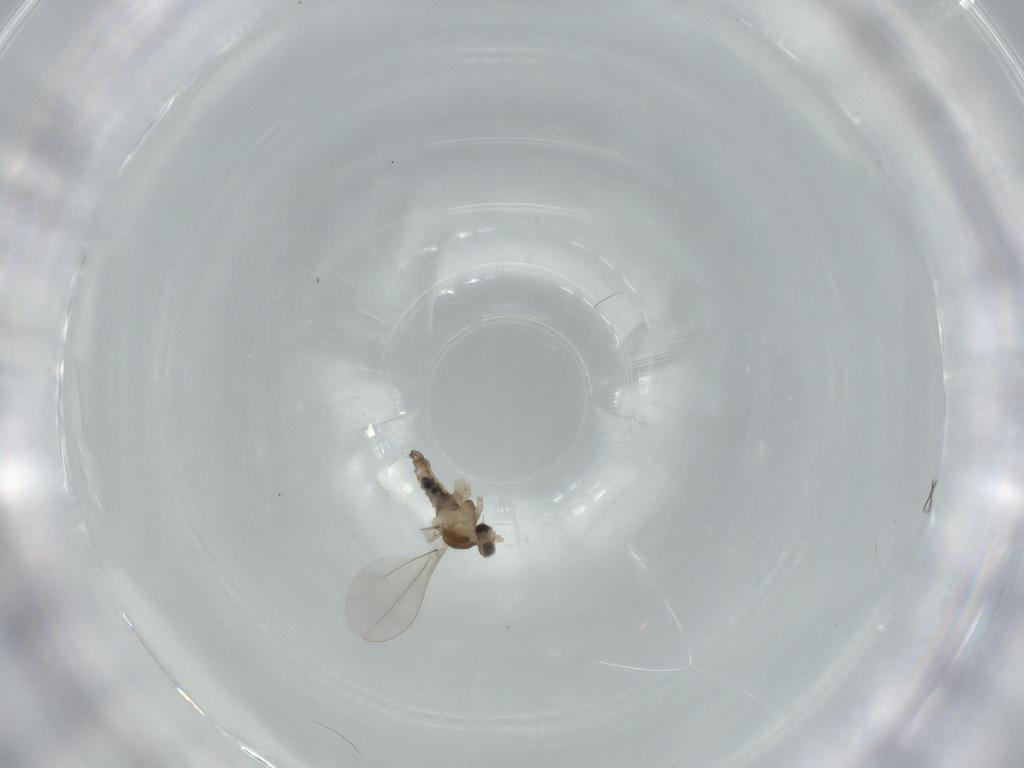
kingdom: Animalia
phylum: Arthropoda
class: Insecta
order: Diptera
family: Cecidomyiidae
